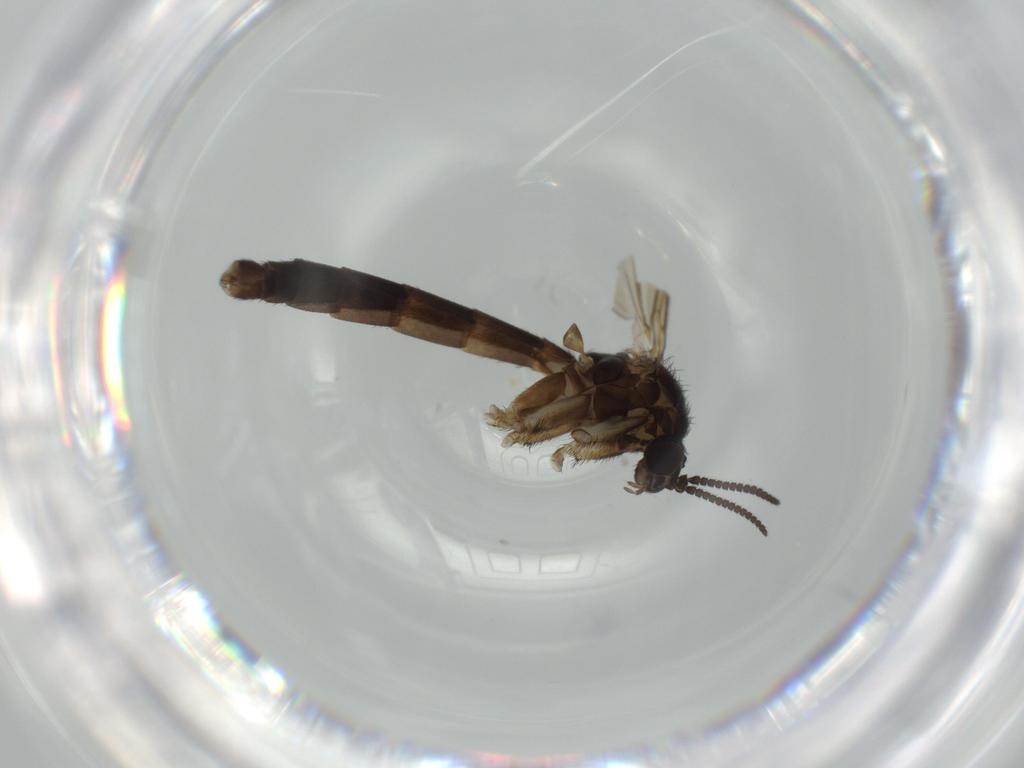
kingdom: Animalia
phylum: Arthropoda
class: Insecta
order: Diptera
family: Keroplatidae
